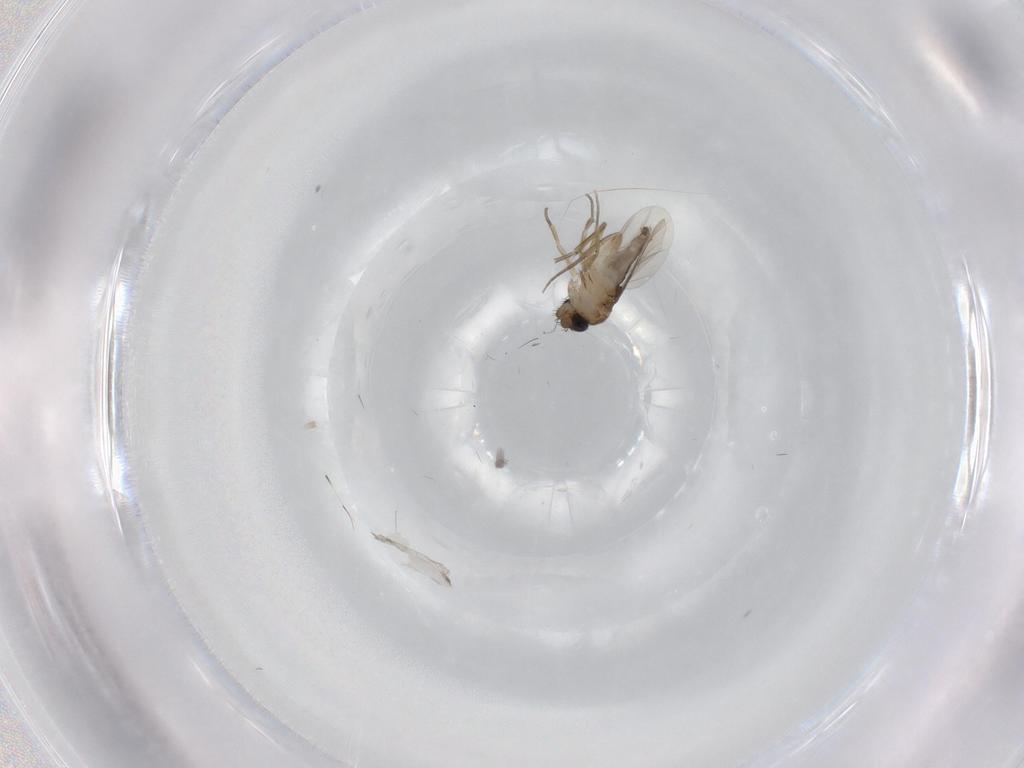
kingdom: Animalia
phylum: Arthropoda
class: Insecta
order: Diptera
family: Phoridae
